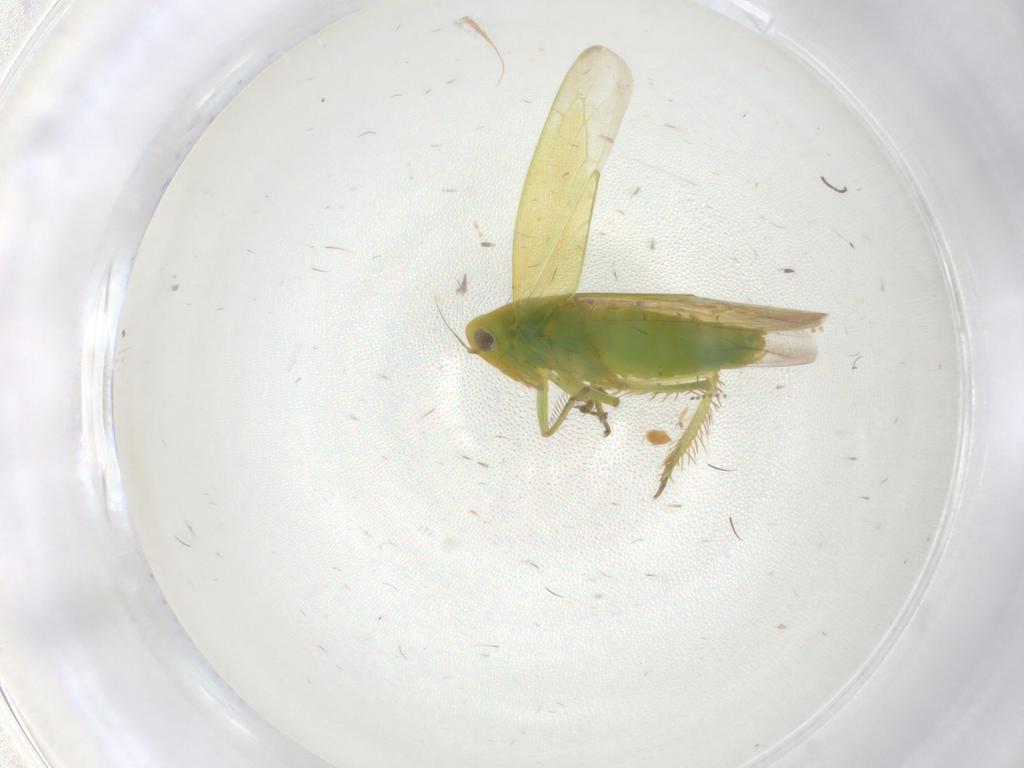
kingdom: Animalia
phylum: Arthropoda
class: Insecta
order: Hemiptera
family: Cicadellidae
